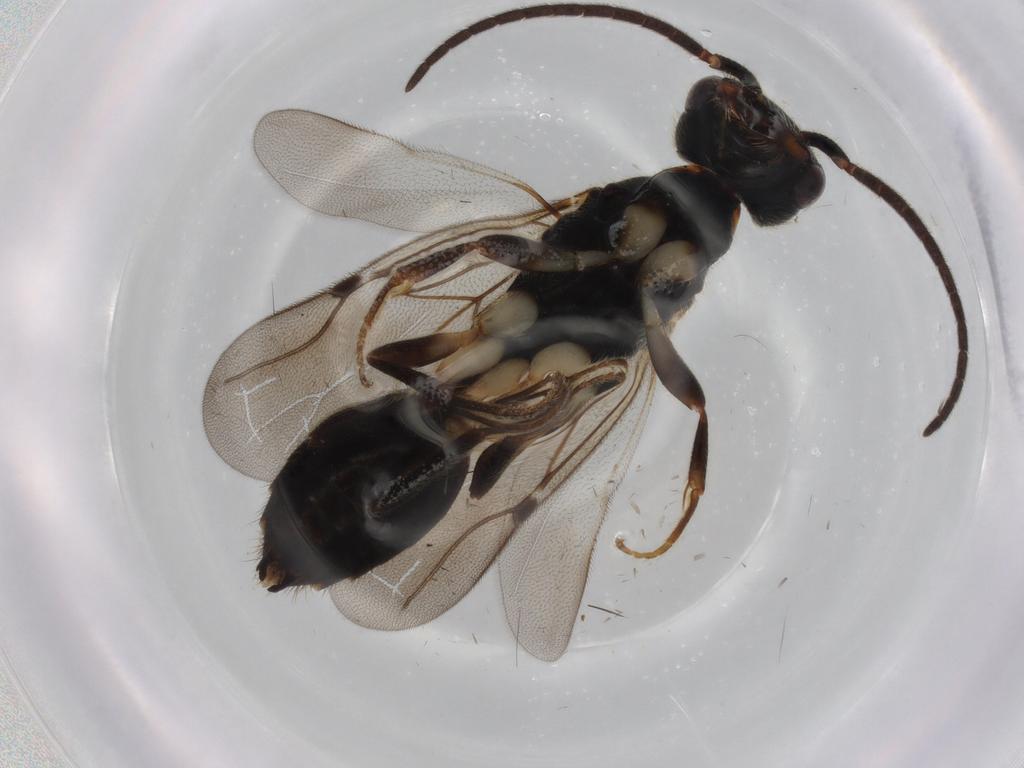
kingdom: Animalia
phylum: Arthropoda
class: Insecta
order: Hymenoptera
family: Bethylidae
